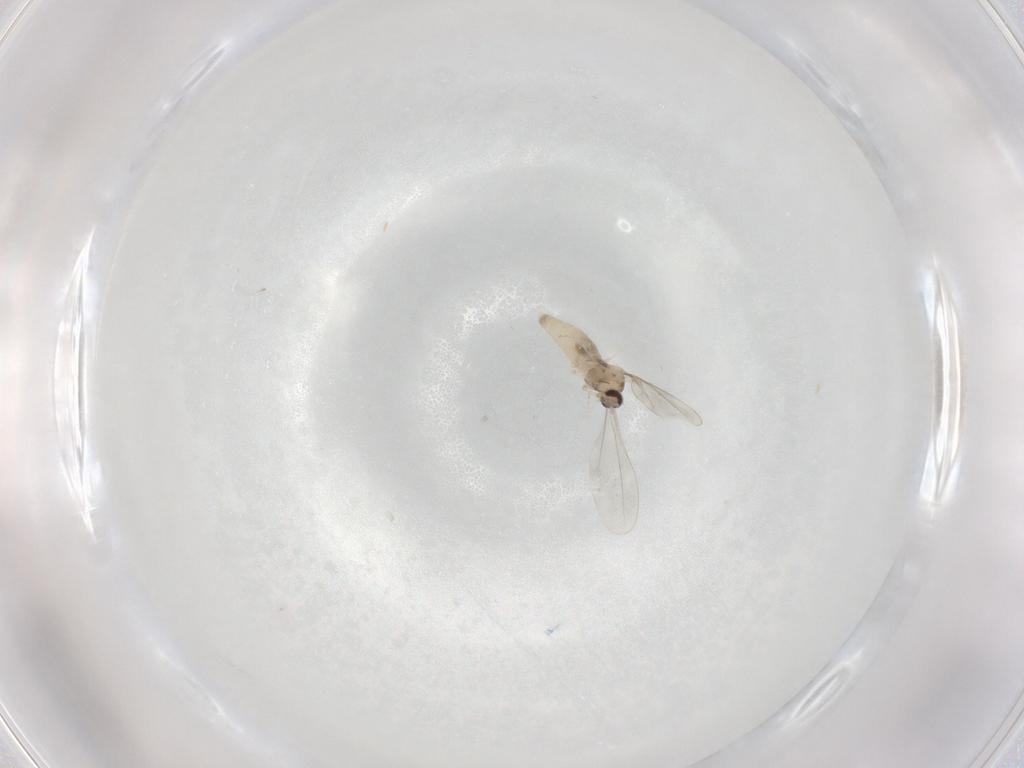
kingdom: Animalia
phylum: Arthropoda
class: Insecta
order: Diptera
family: Cecidomyiidae
